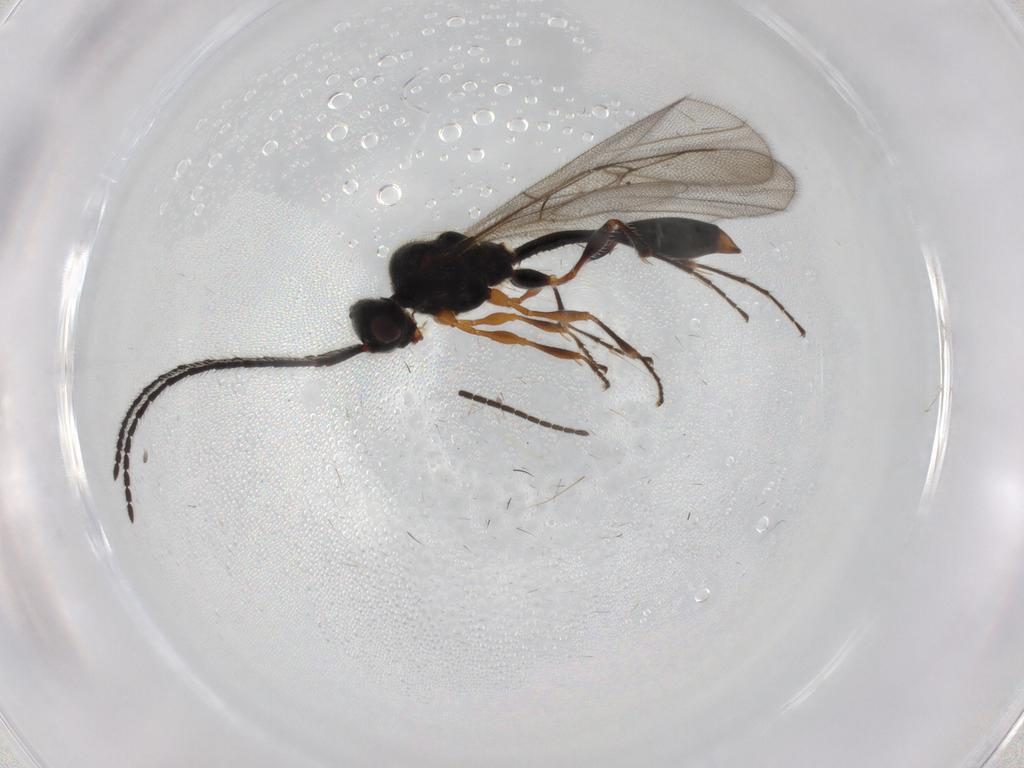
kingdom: Animalia
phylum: Arthropoda
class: Insecta
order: Hymenoptera
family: Diapriidae
